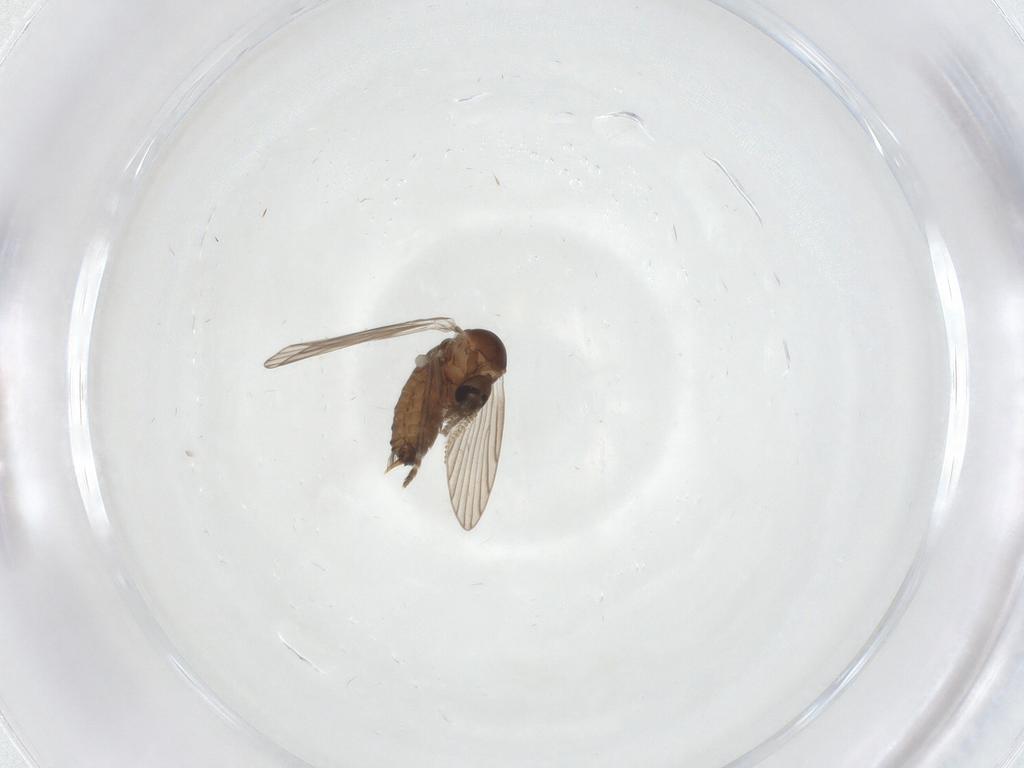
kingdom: Animalia
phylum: Arthropoda
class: Insecta
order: Diptera
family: Psychodidae
